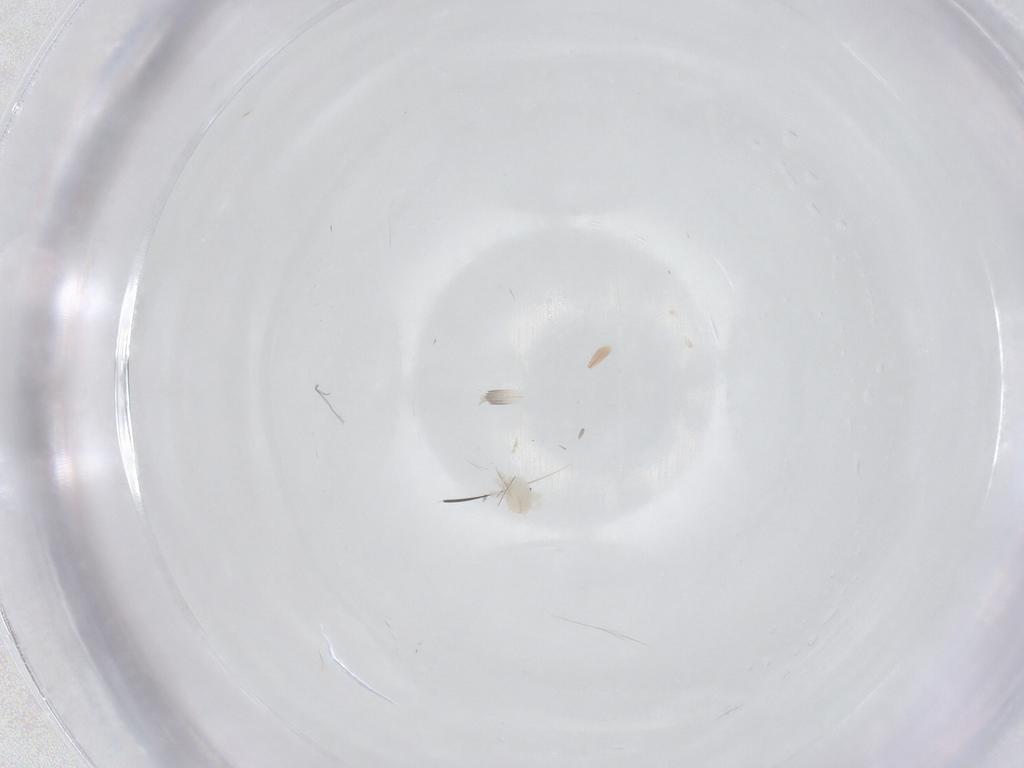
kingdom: Animalia
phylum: Arthropoda
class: Arachnida
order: Trombidiformes
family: Anystidae
